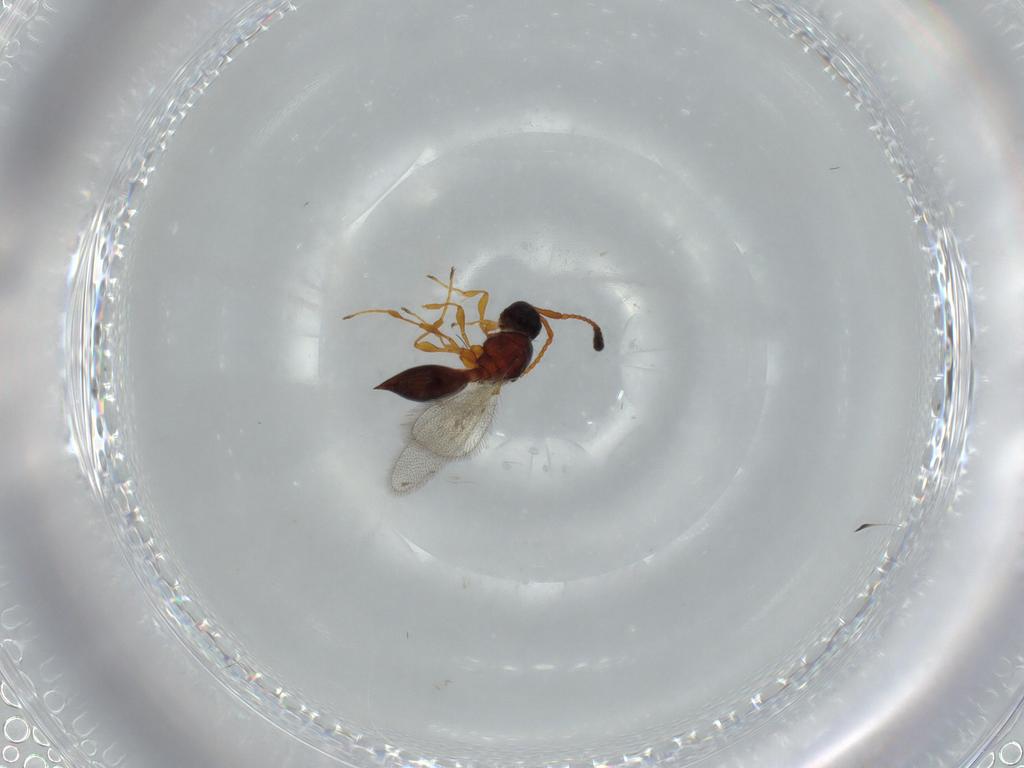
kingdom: Animalia
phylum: Arthropoda
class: Insecta
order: Hymenoptera
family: Diapriidae
